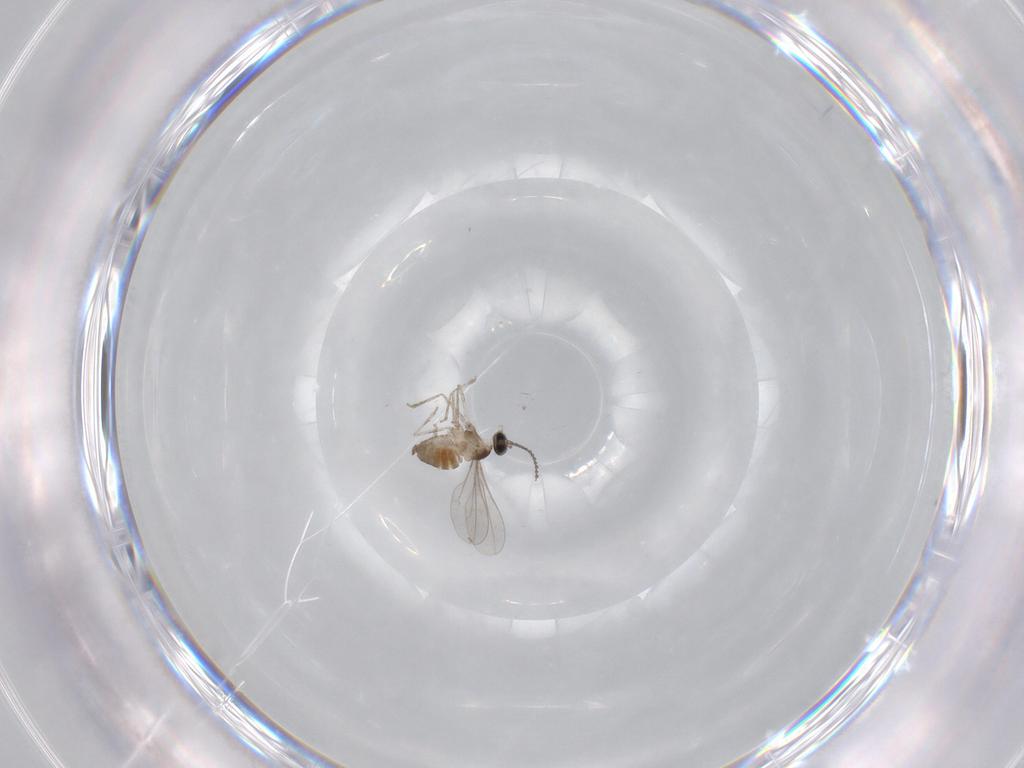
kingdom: Animalia
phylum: Arthropoda
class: Insecta
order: Diptera
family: Cecidomyiidae
